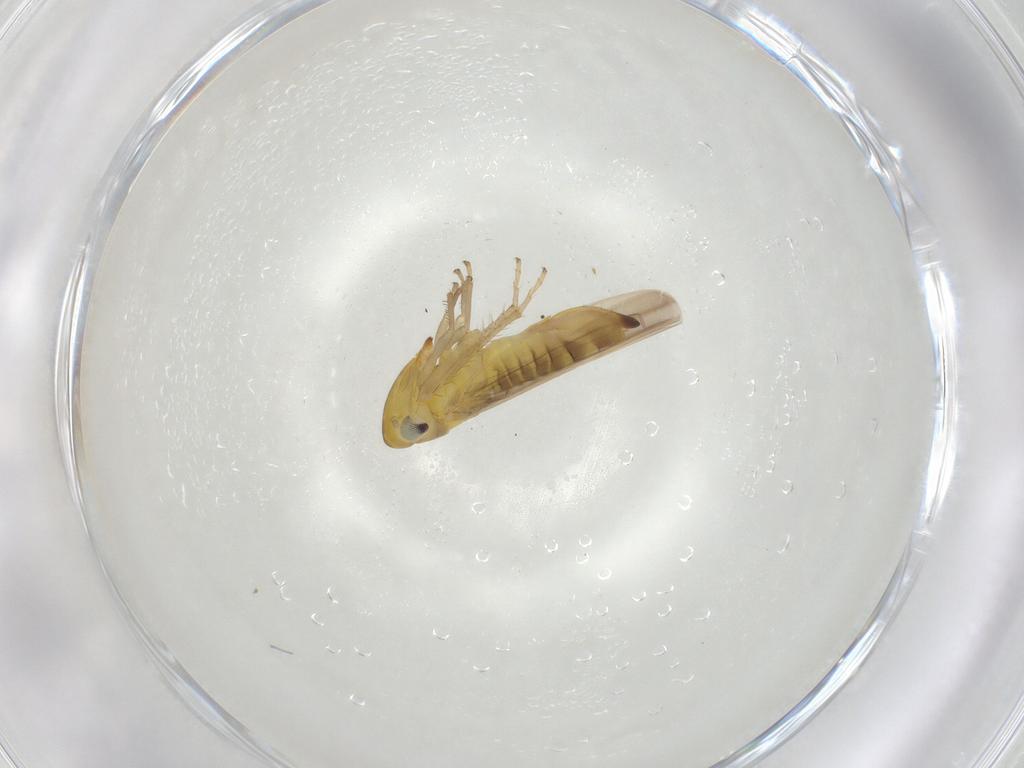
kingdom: Animalia
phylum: Arthropoda
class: Insecta
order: Hemiptera
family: Cicadellidae
